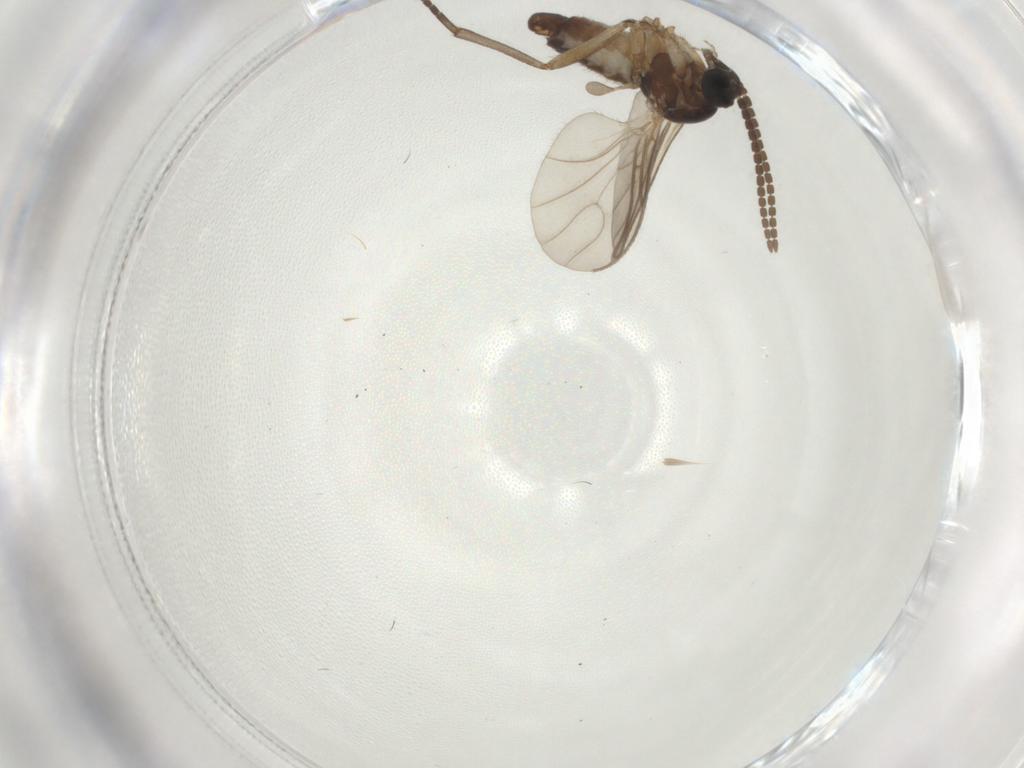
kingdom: Animalia
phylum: Arthropoda
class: Insecta
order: Diptera
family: Sciaridae
